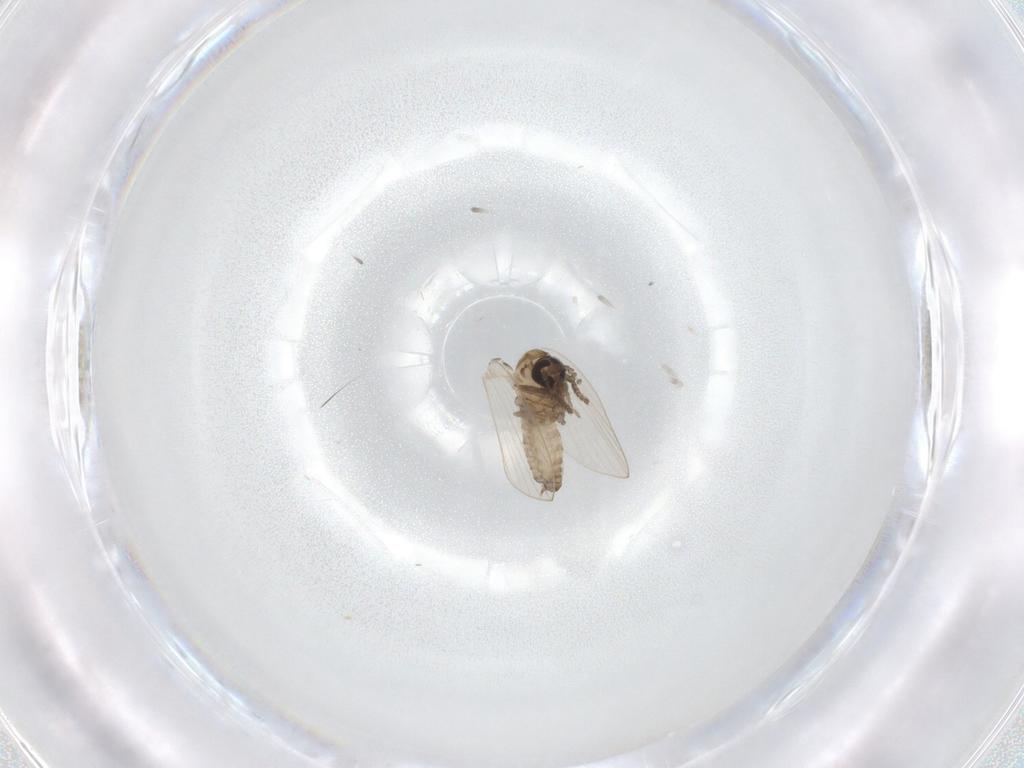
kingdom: Animalia
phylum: Arthropoda
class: Insecta
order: Diptera
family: Psychodidae
